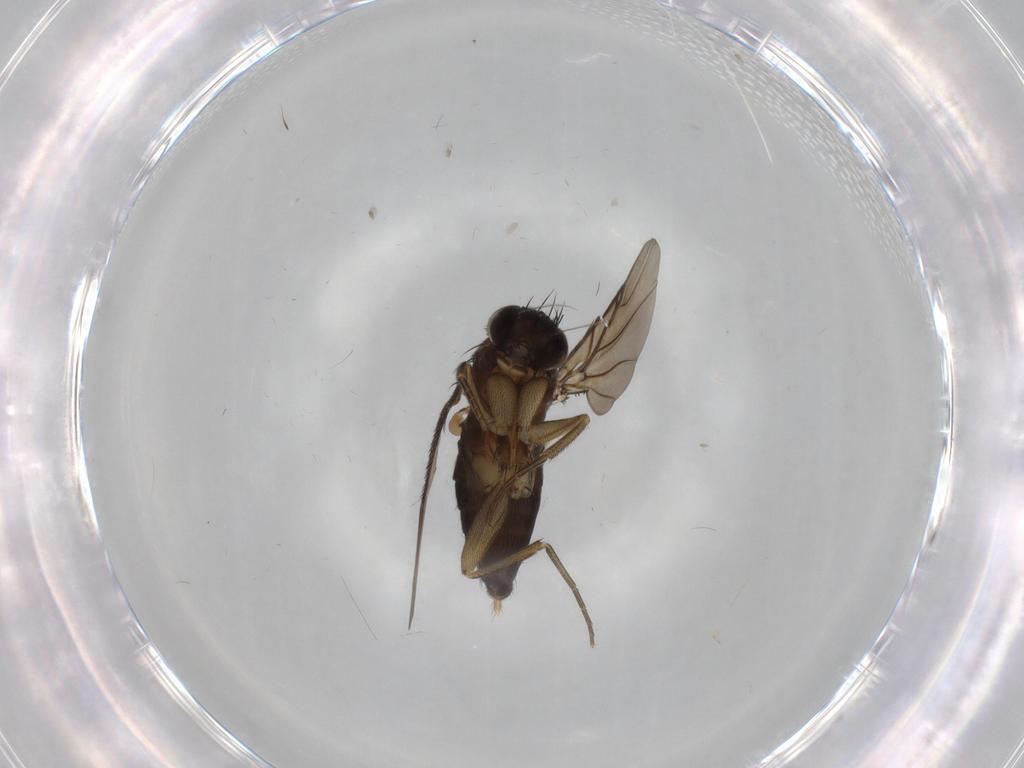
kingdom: Animalia
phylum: Arthropoda
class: Insecta
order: Diptera
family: Phoridae
